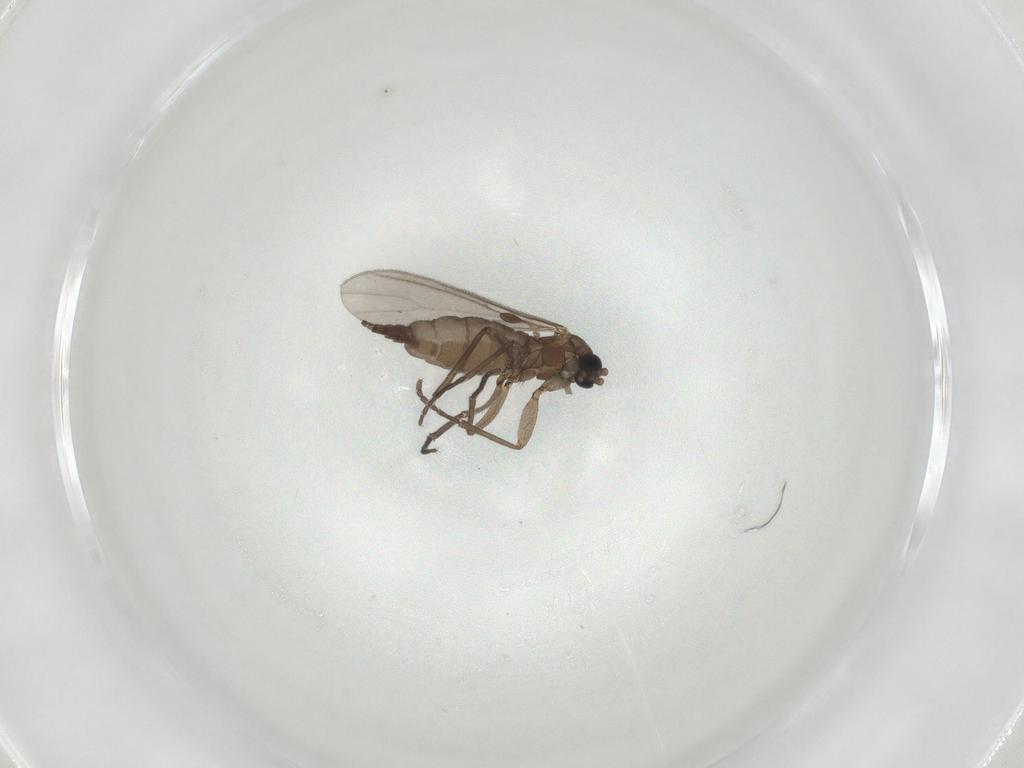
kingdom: Animalia
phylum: Arthropoda
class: Insecta
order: Diptera
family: Sciaridae
